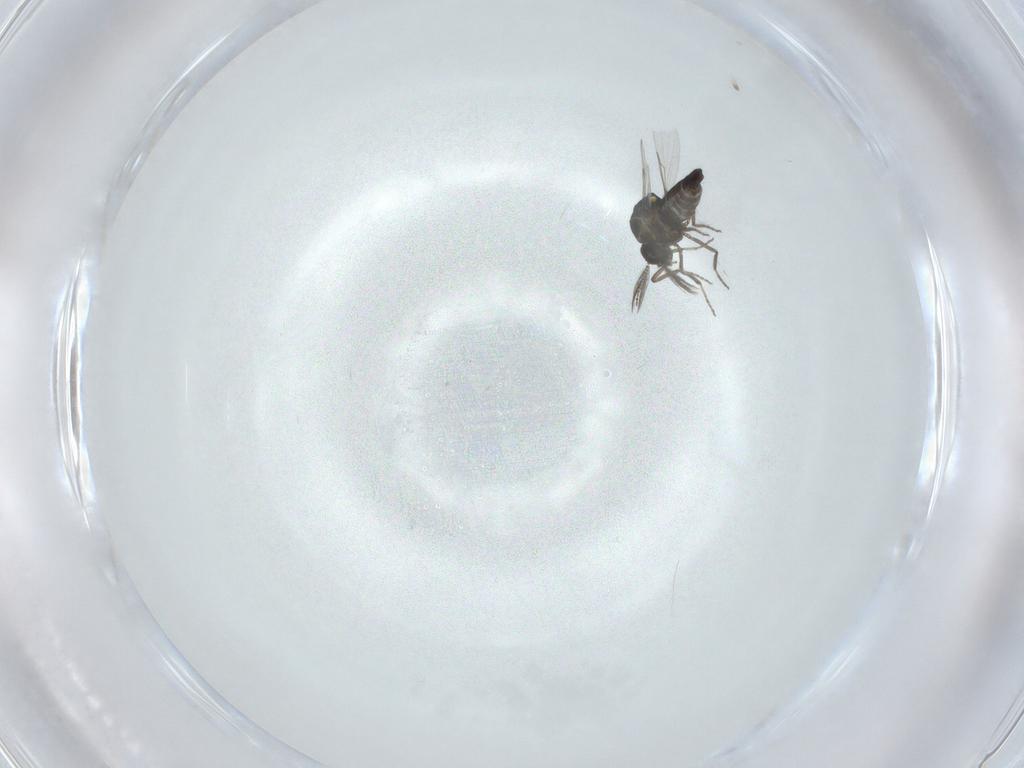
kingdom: Animalia
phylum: Arthropoda
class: Insecta
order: Diptera
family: Ceratopogonidae
